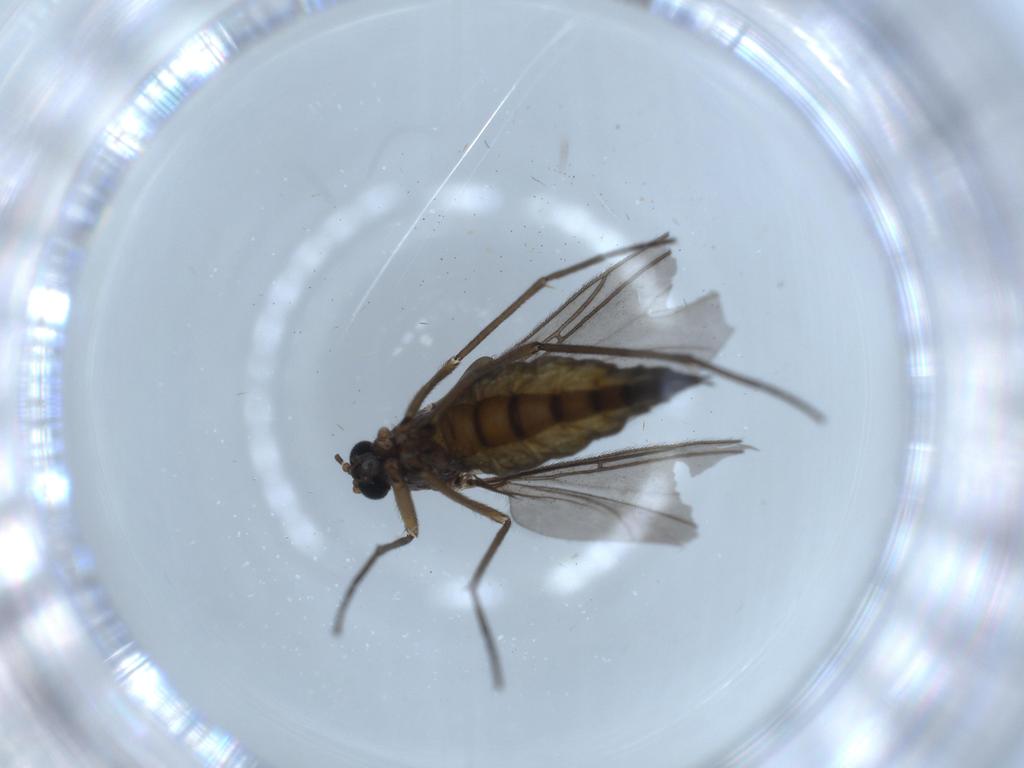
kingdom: Animalia
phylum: Arthropoda
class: Insecta
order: Diptera
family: Sciaridae
